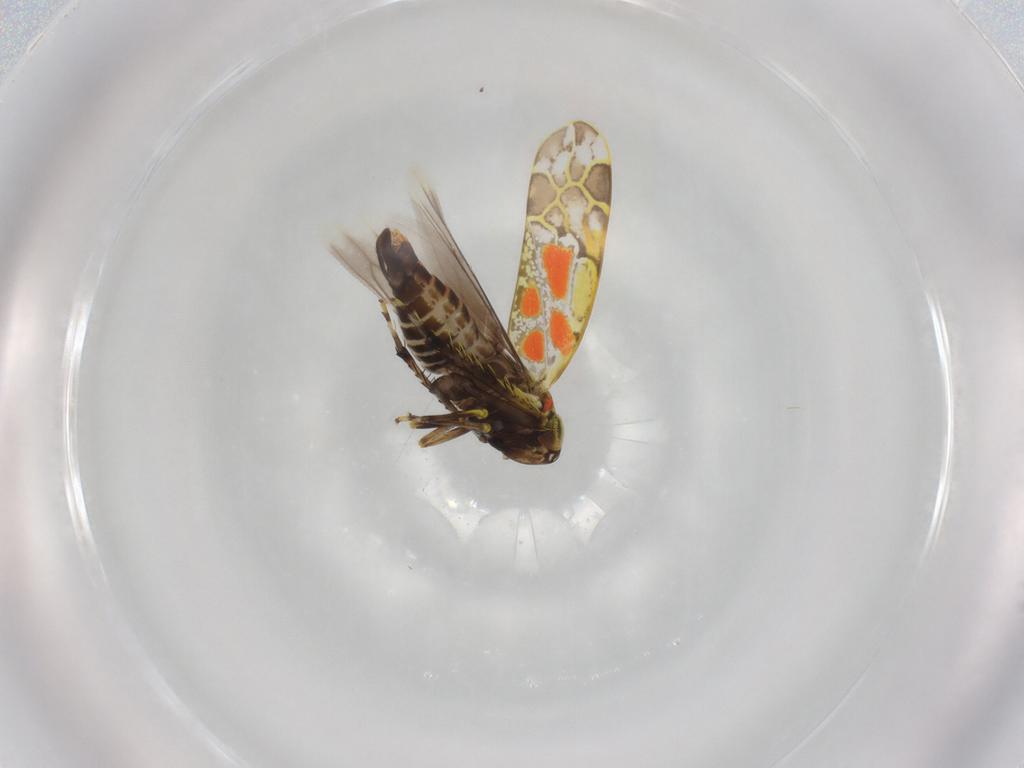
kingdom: Animalia
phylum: Arthropoda
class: Insecta
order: Hemiptera
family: Cicadellidae
